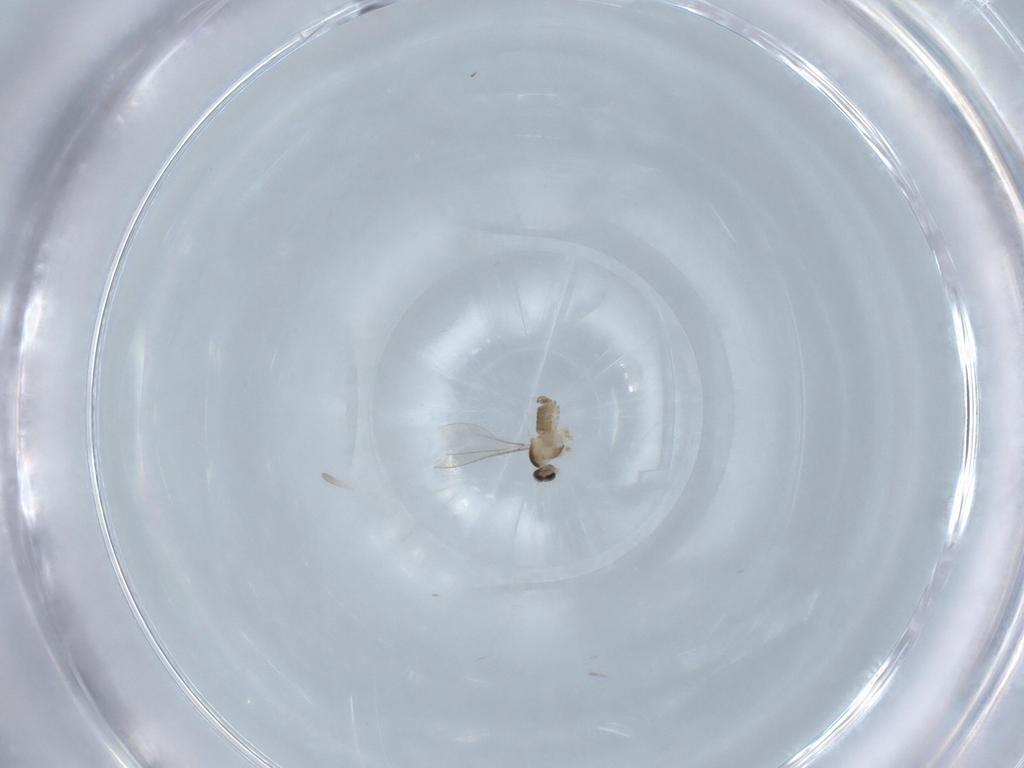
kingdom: Animalia
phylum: Arthropoda
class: Insecta
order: Diptera
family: Cecidomyiidae
